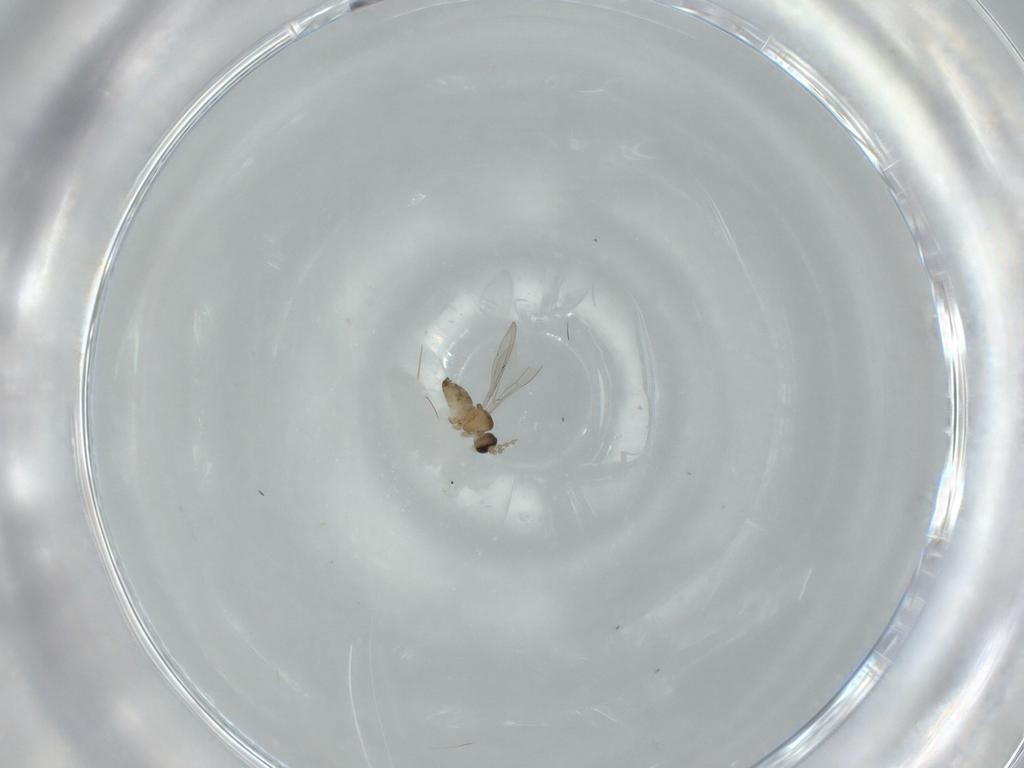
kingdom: Animalia
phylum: Arthropoda
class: Insecta
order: Diptera
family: Cecidomyiidae
